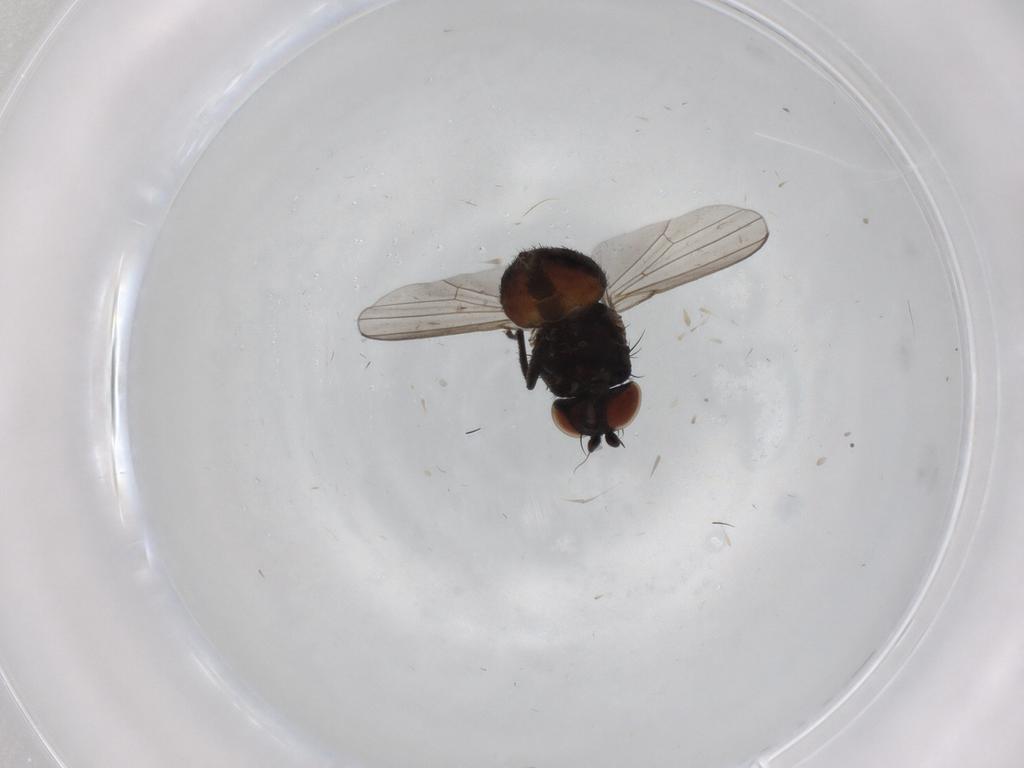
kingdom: Animalia
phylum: Arthropoda
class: Insecta
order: Diptera
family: Milichiidae
